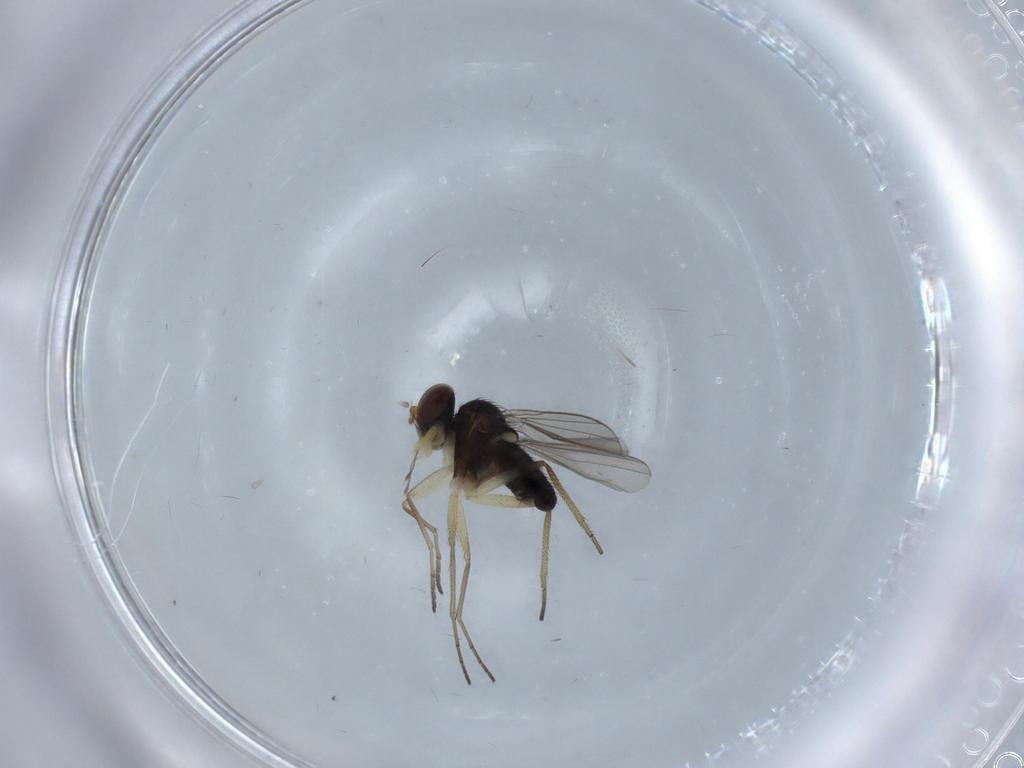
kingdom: Animalia
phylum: Arthropoda
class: Insecta
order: Diptera
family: Dolichopodidae
